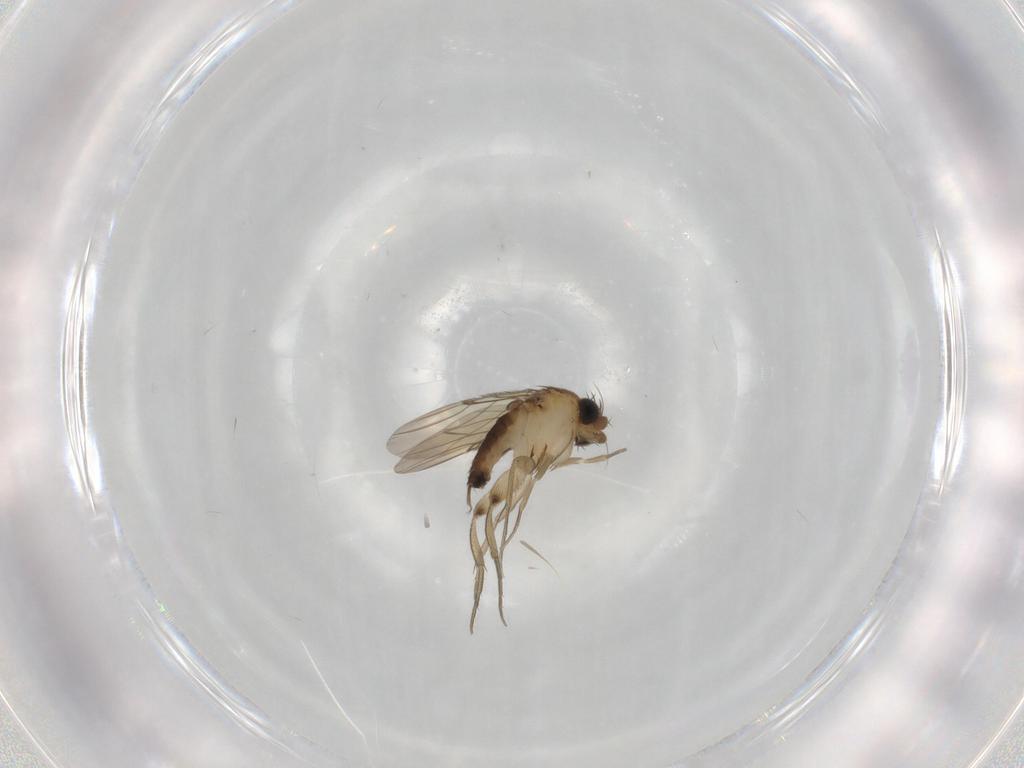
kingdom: Animalia
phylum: Arthropoda
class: Insecta
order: Diptera
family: Phoridae
